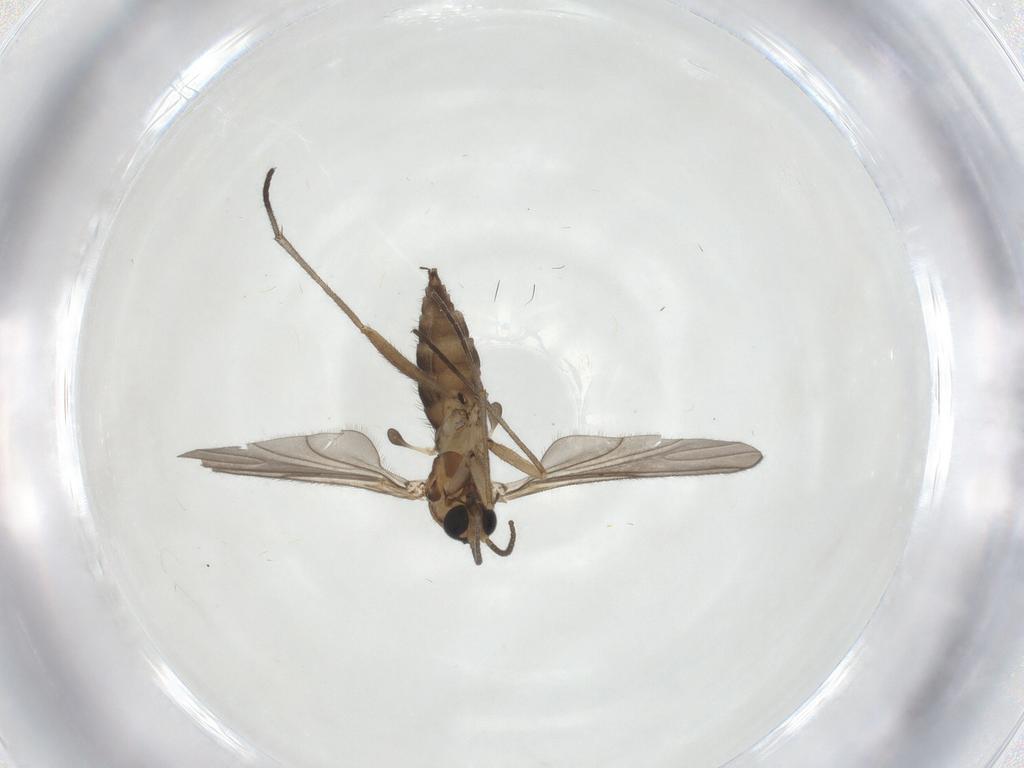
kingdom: Animalia
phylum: Arthropoda
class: Insecta
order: Diptera
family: Sciaridae
